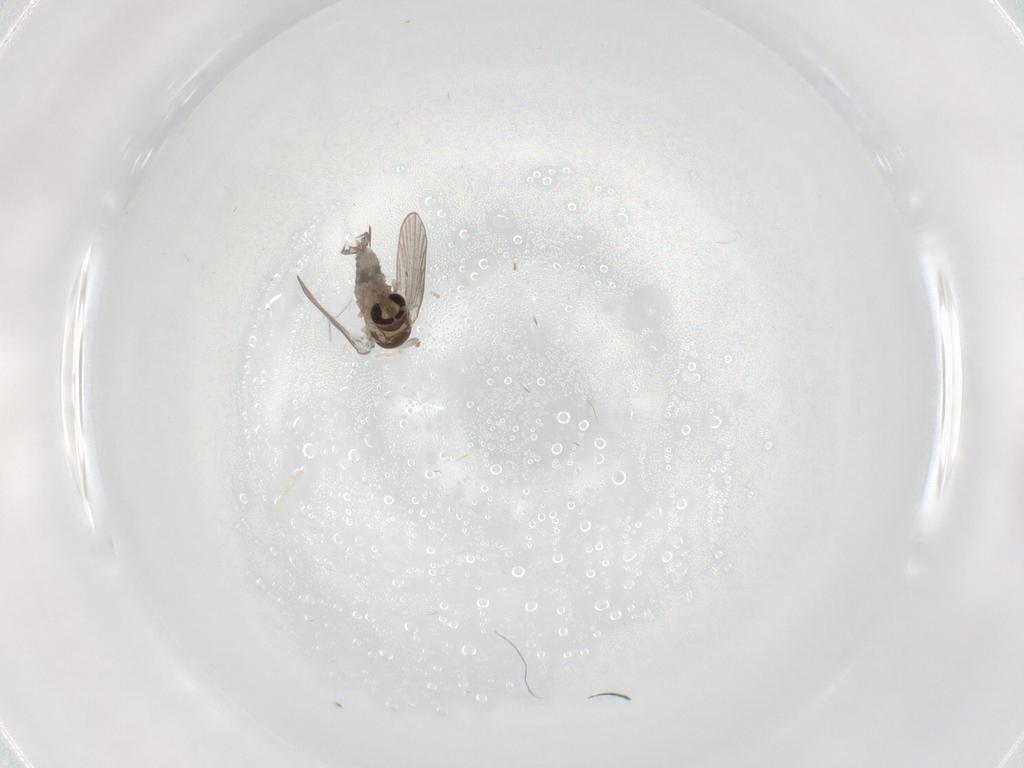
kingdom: Animalia
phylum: Arthropoda
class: Insecta
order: Diptera
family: Psychodidae
